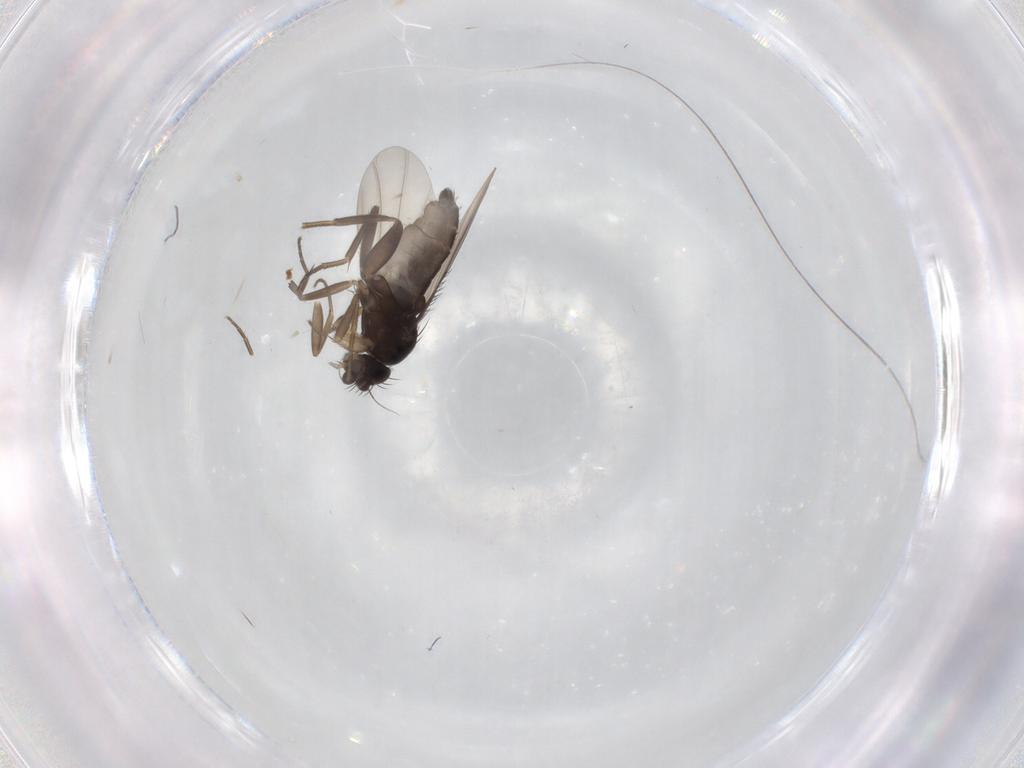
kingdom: Animalia
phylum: Arthropoda
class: Insecta
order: Diptera
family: Phoridae
